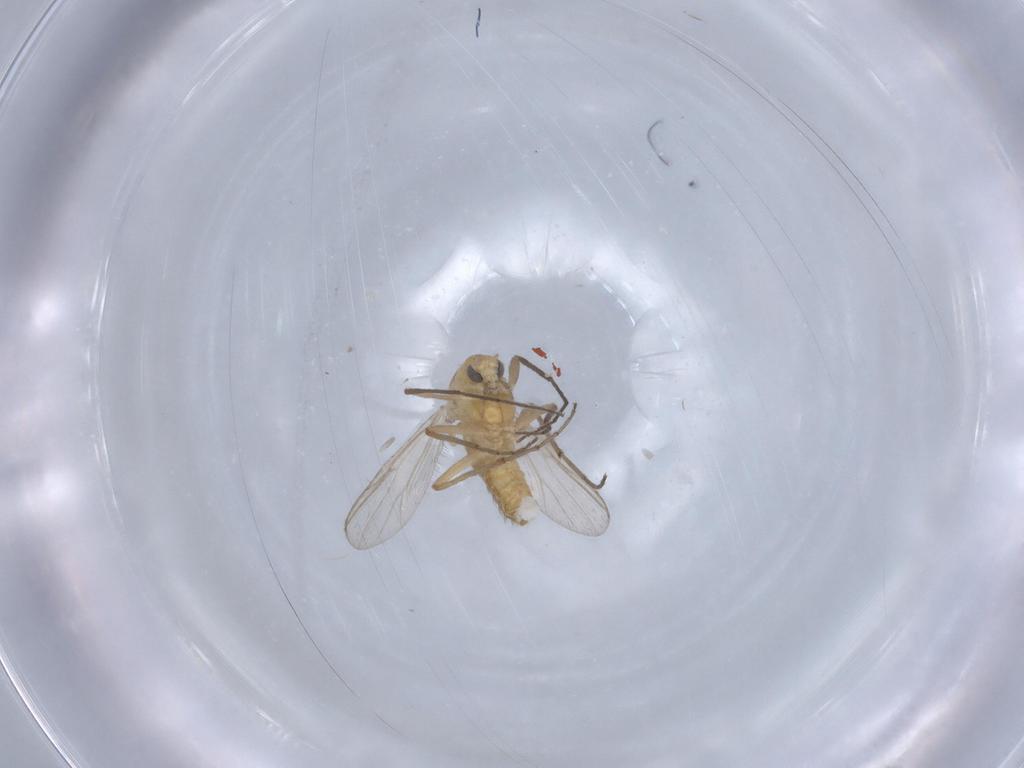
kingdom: Animalia
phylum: Arthropoda
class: Insecta
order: Diptera
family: Chironomidae
